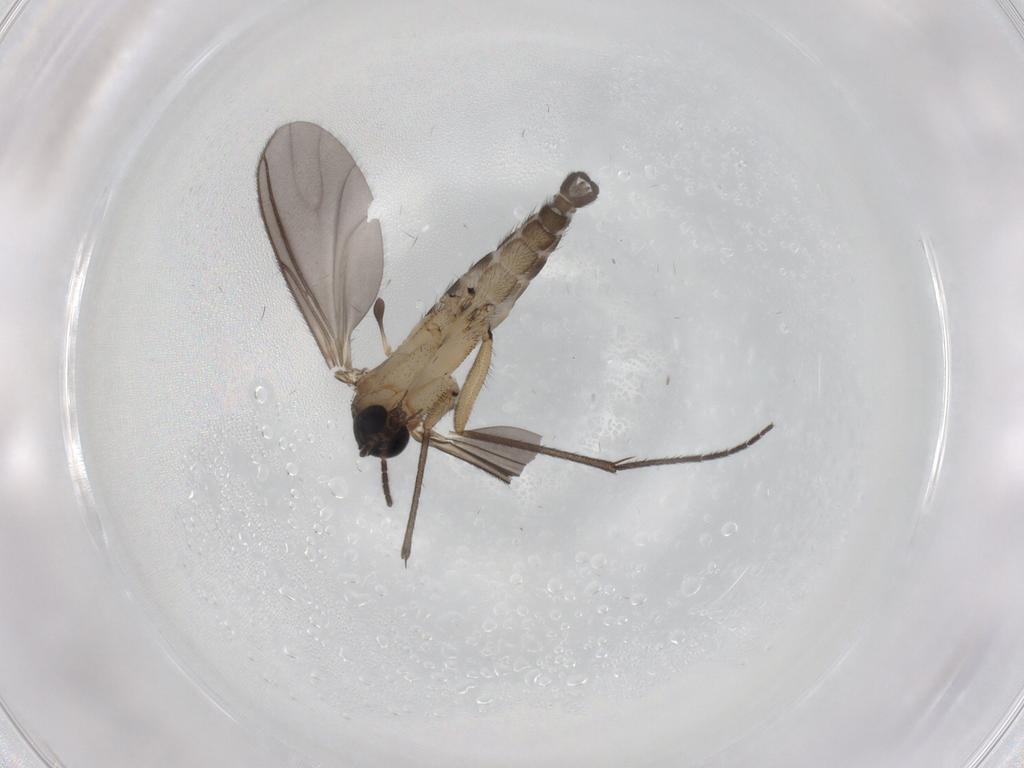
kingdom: Animalia
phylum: Arthropoda
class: Insecta
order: Diptera
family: Sciaridae
